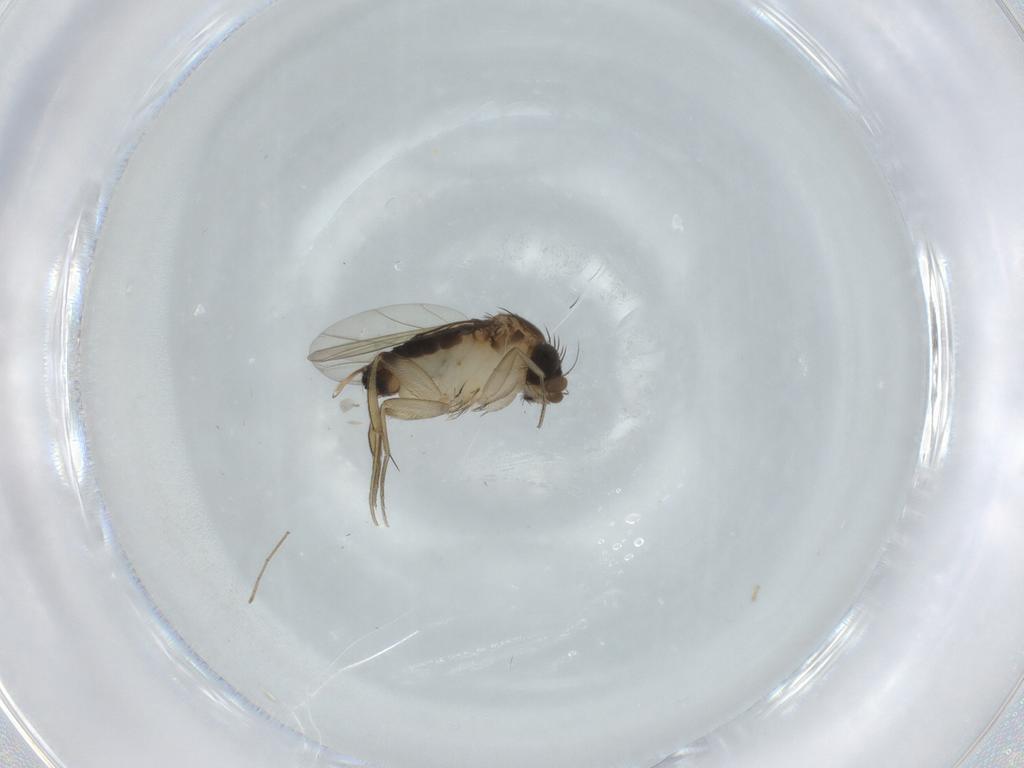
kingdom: Animalia
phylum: Arthropoda
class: Insecta
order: Diptera
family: Phoridae
